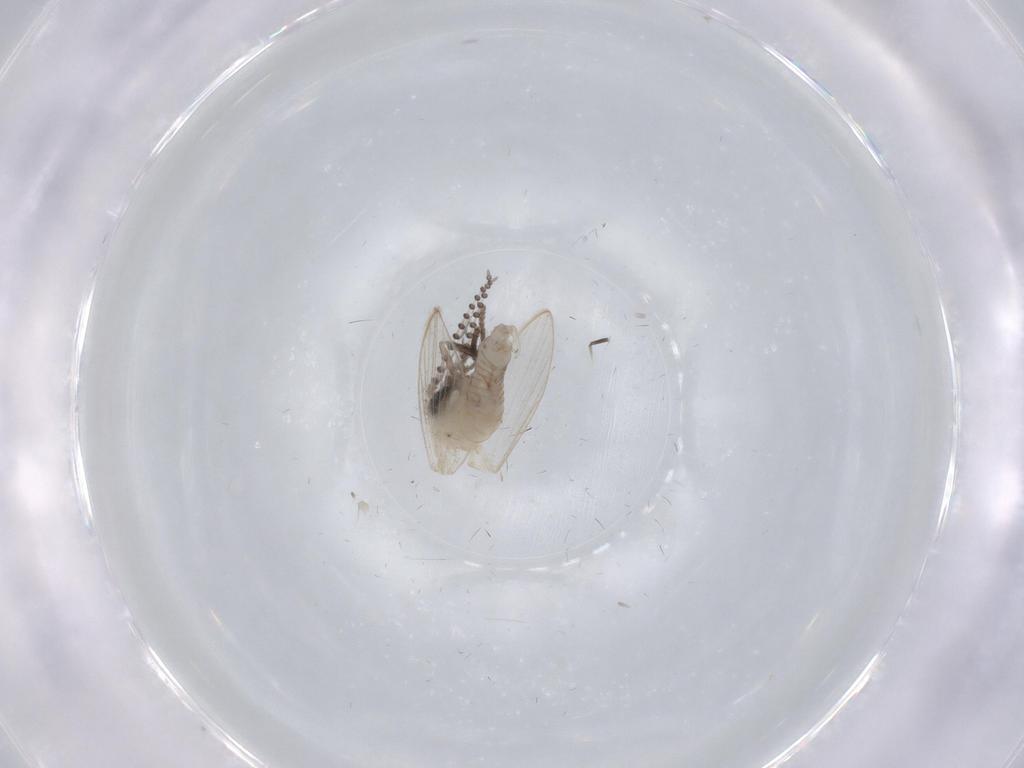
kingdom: Animalia
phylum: Arthropoda
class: Insecta
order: Diptera
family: Psychodidae
